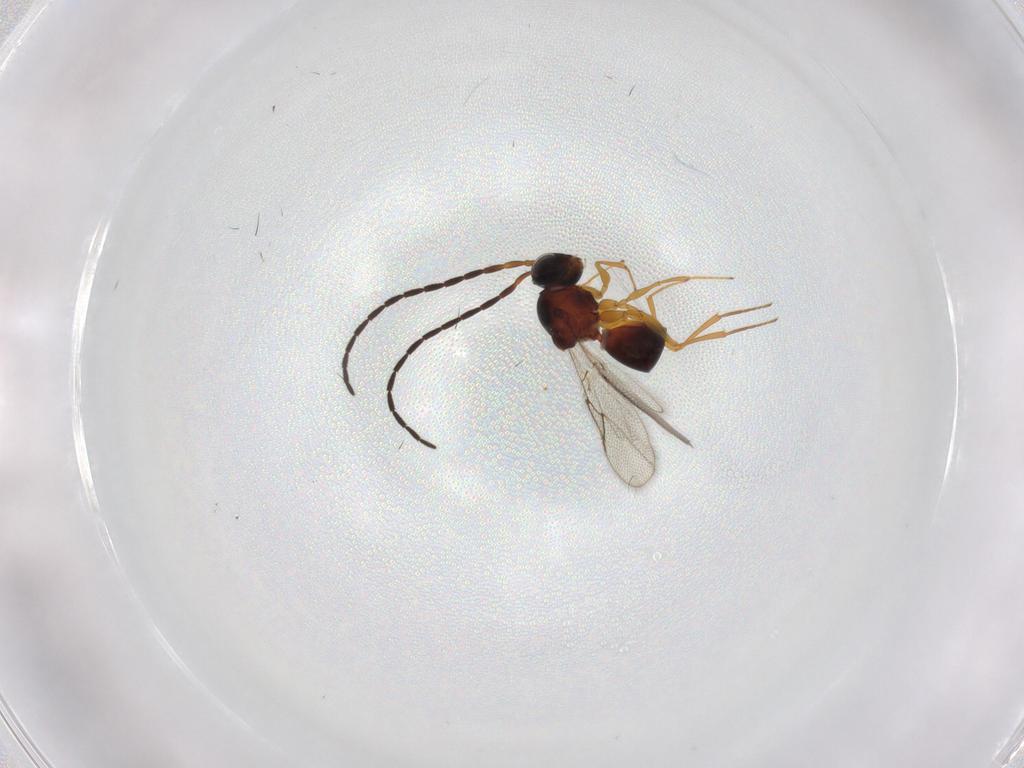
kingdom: Animalia
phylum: Arthropoda
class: Insecta
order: Hymenoptera
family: Figitidae
